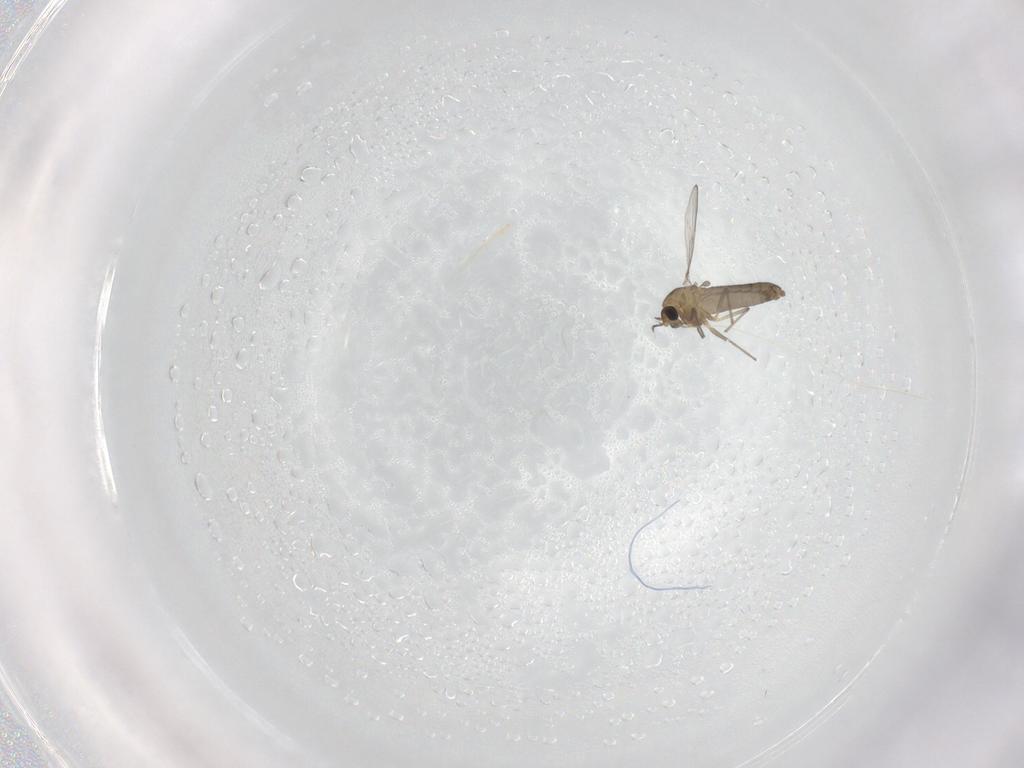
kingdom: Animalia
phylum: Arthropoda
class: Insecta
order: Diptera
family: Chironomidae
